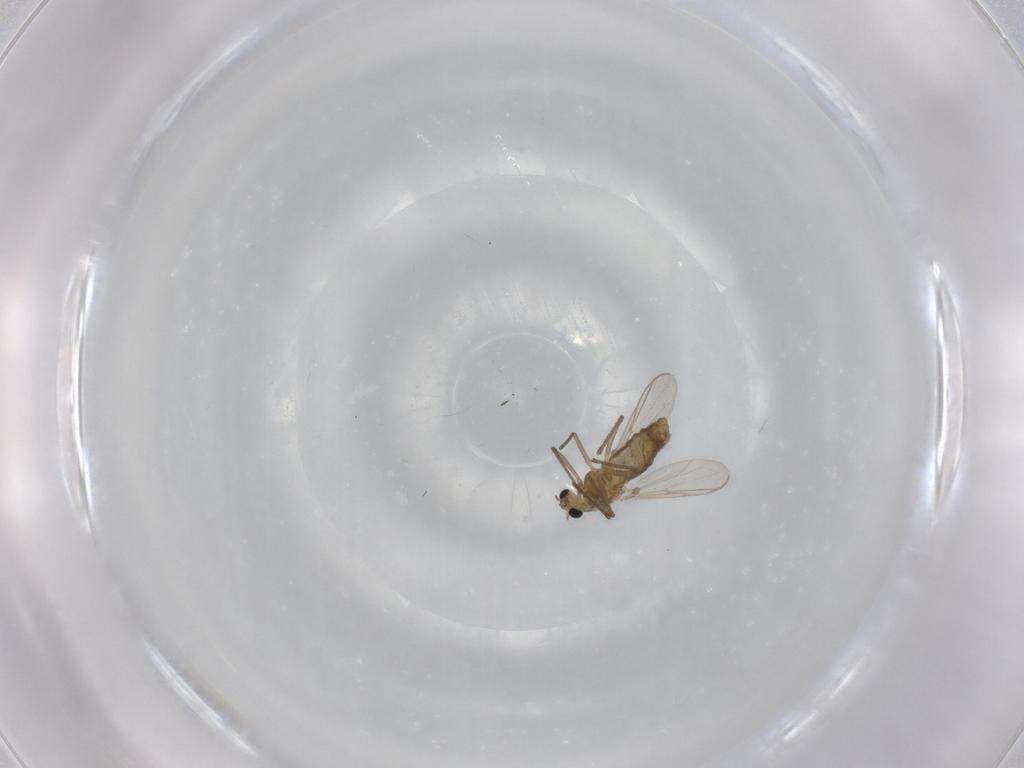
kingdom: Animalia
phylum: Arthropoda
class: Insecta
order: Diptera
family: Chironomidae
